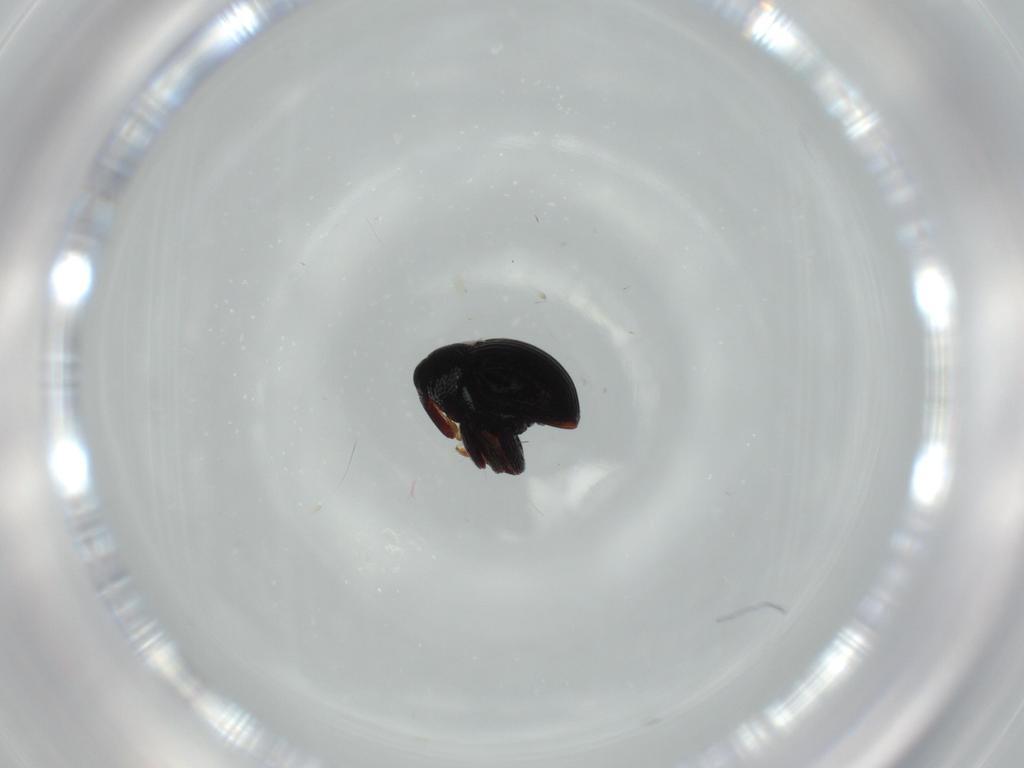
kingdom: Animalia
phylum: Arthropoda
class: Insecta
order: Coleoptera
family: Curculionidae
